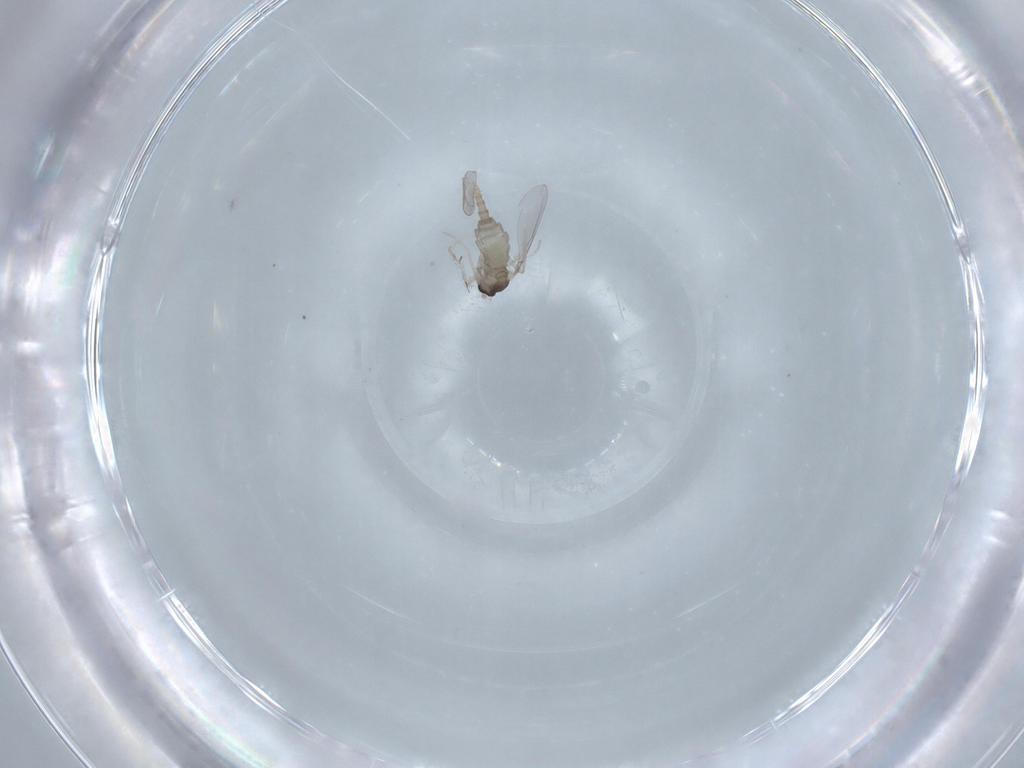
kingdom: Animalia
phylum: Arthropoda
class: Insecta
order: Diptera
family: Cecidomyiidae
